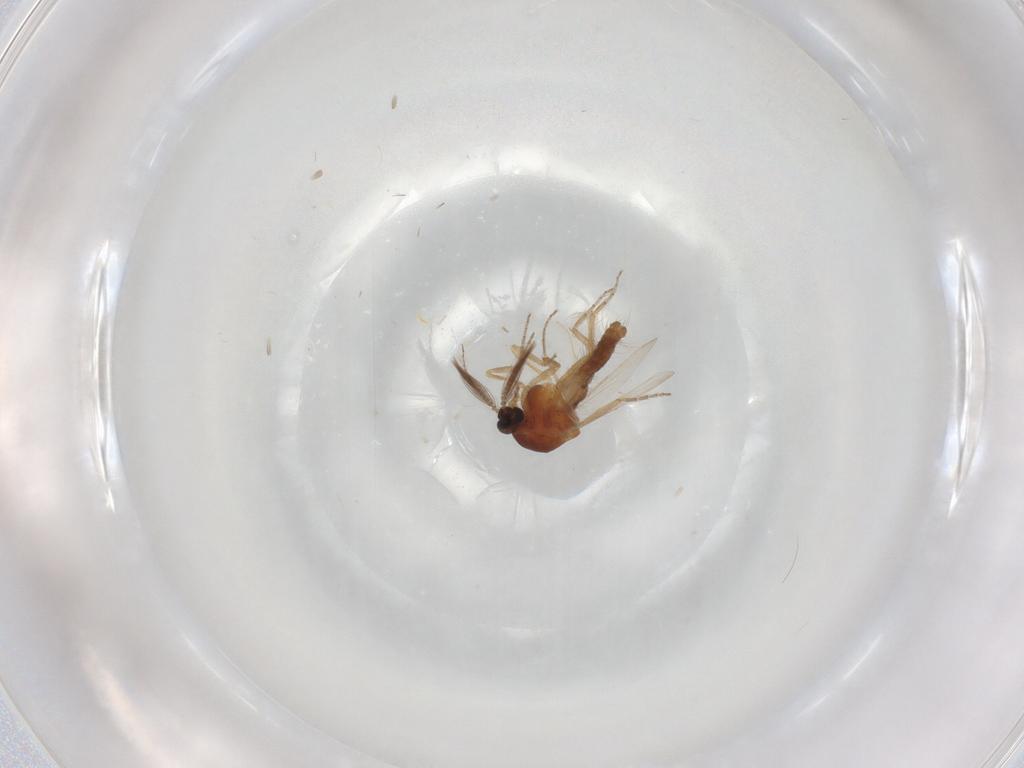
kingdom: Animalia
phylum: Arthropoda
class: Insecta
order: Diptera
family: Ceratopogonidae
